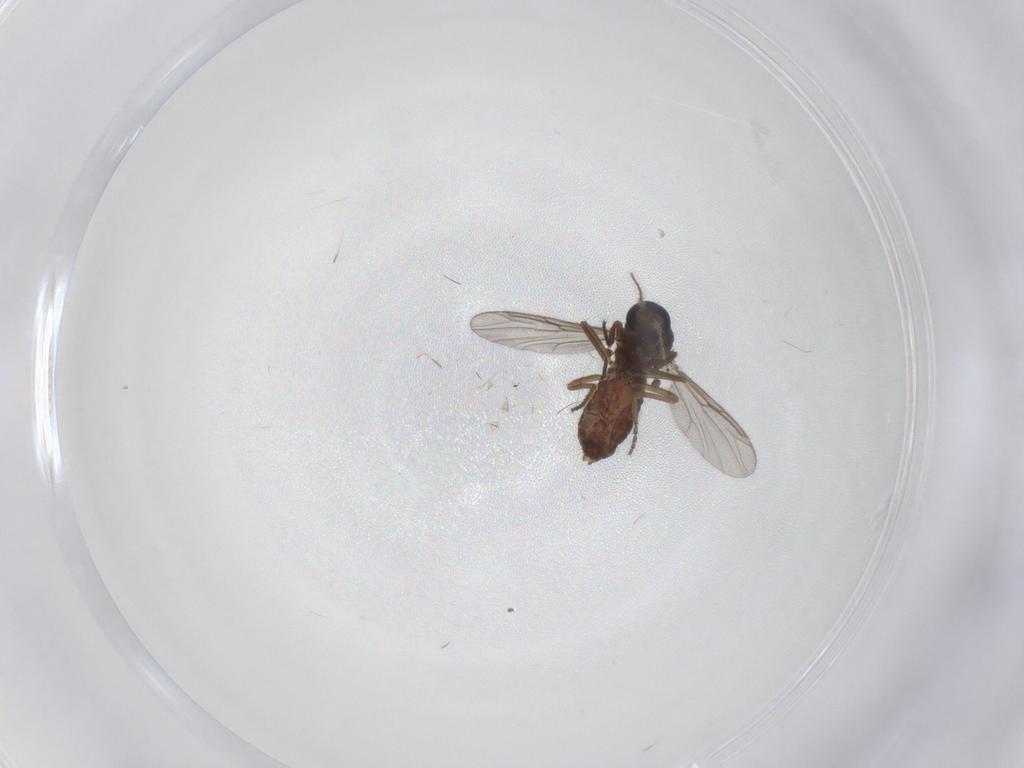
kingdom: Animalia
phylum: Arthropoda
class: Insecta
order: Diptera
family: Ceratopogonidae
